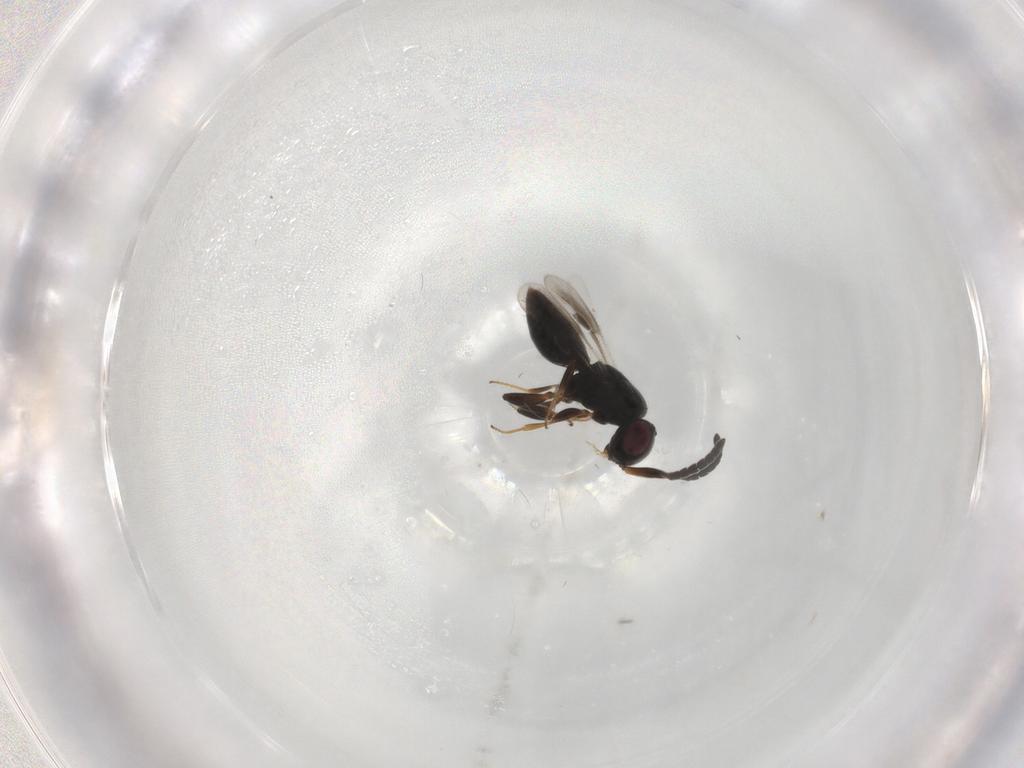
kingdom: Animalia
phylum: Arthropoda
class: Insecta
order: Hymenoptera
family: Megaspilidae
